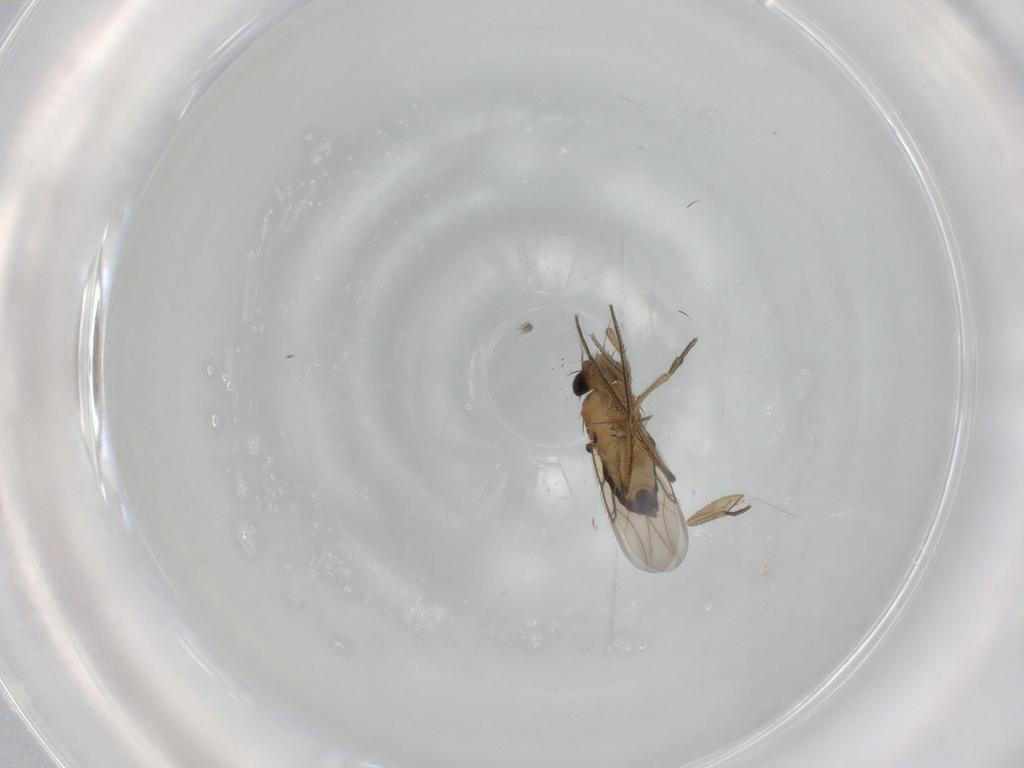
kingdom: Animalia
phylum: Arthropoda
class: Insecta
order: Diptera
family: Phoridae
